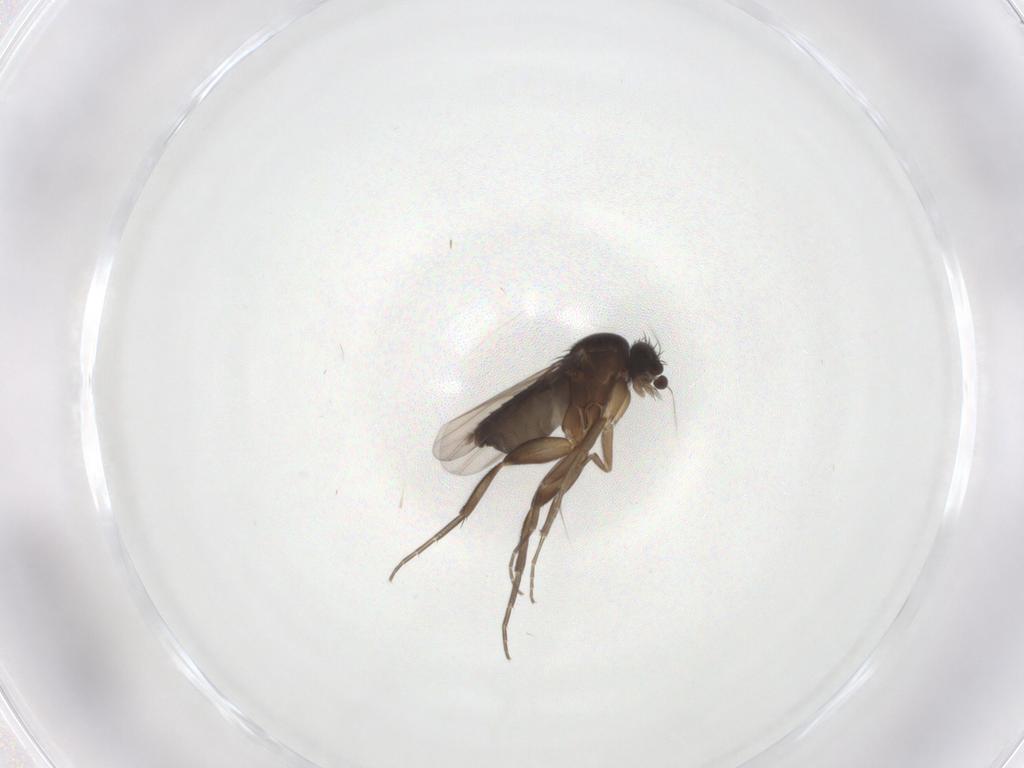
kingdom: Animalia
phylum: Arthropoda
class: Insecta
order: Diptera
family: Phoridae
